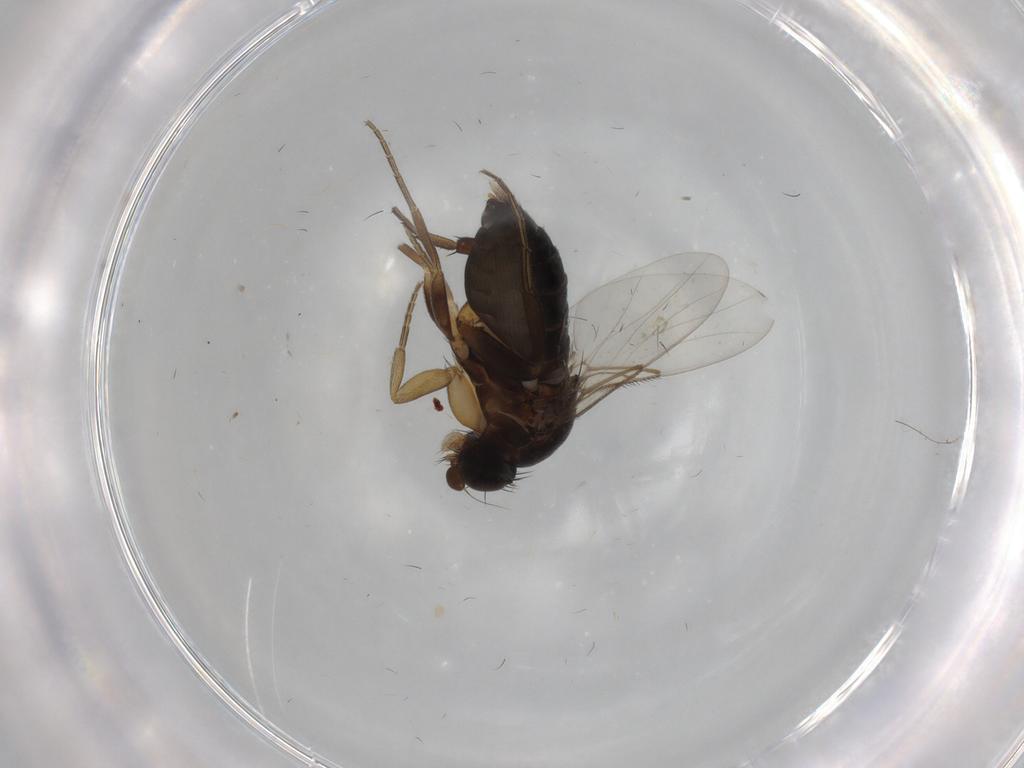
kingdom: Animalia
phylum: Arthropoda
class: Insecta
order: Diptera
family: Phoridae
